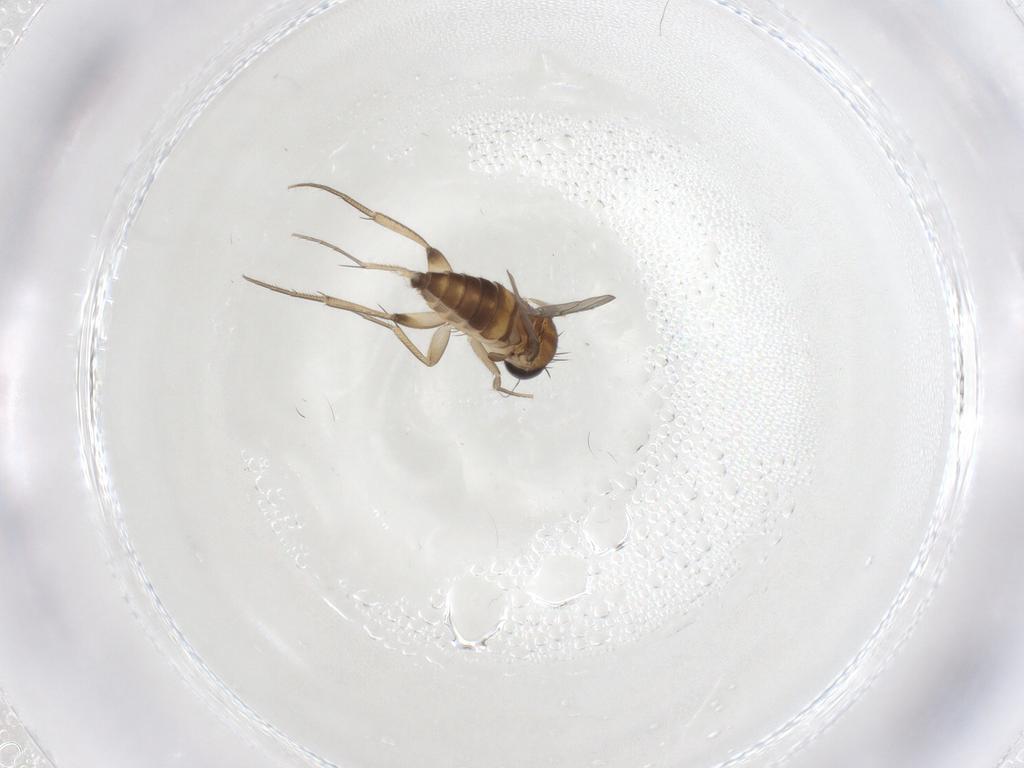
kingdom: Animalia
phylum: Arthropoda
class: Insecta
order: Diptera
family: Phoridae
